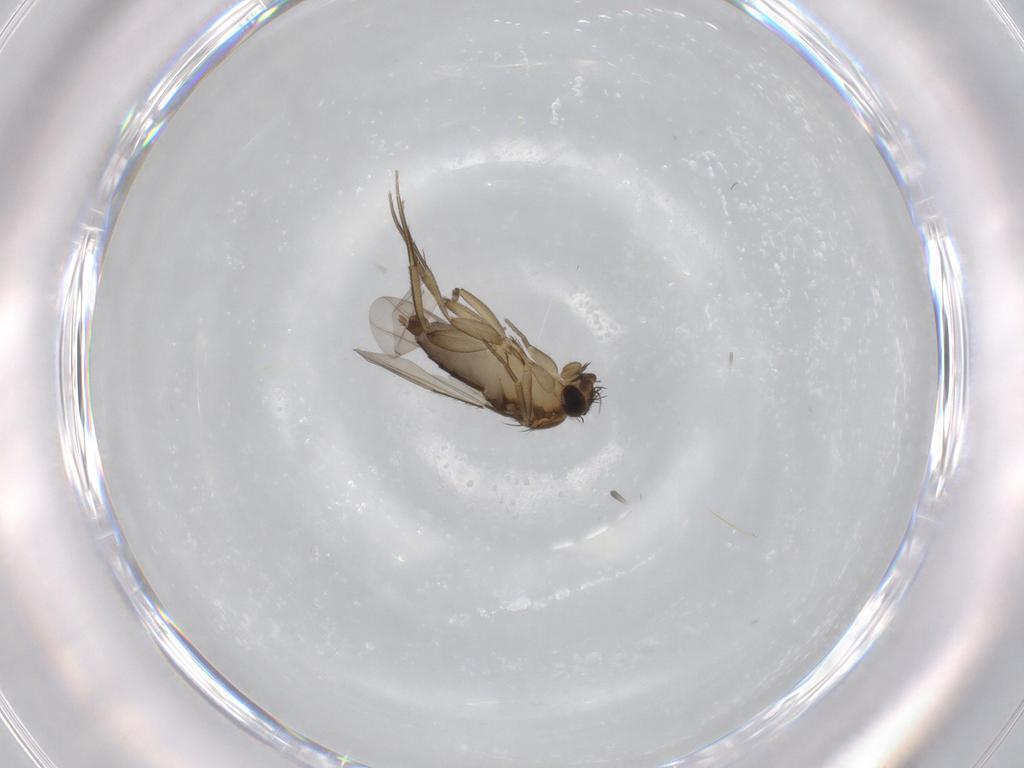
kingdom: Animalia
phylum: Arthropoda
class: Insecta
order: Diptera
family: Phoridae
